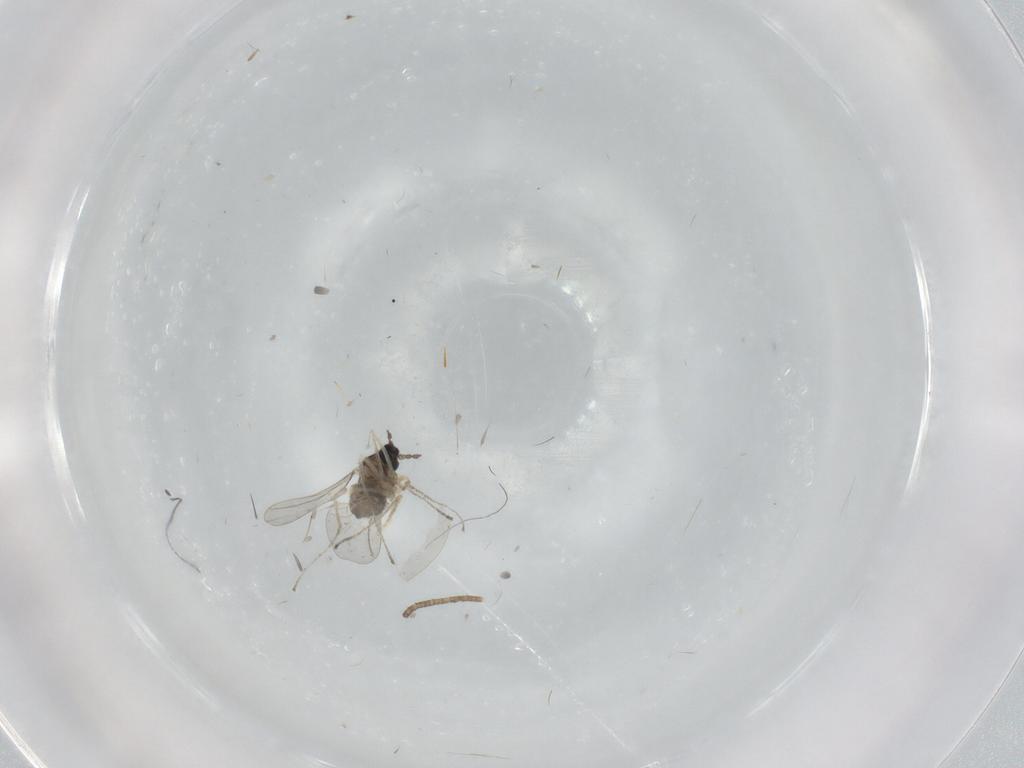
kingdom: Animalia
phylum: Arthropoda
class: Insecta
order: Diptera
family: Cecidomyiidae
